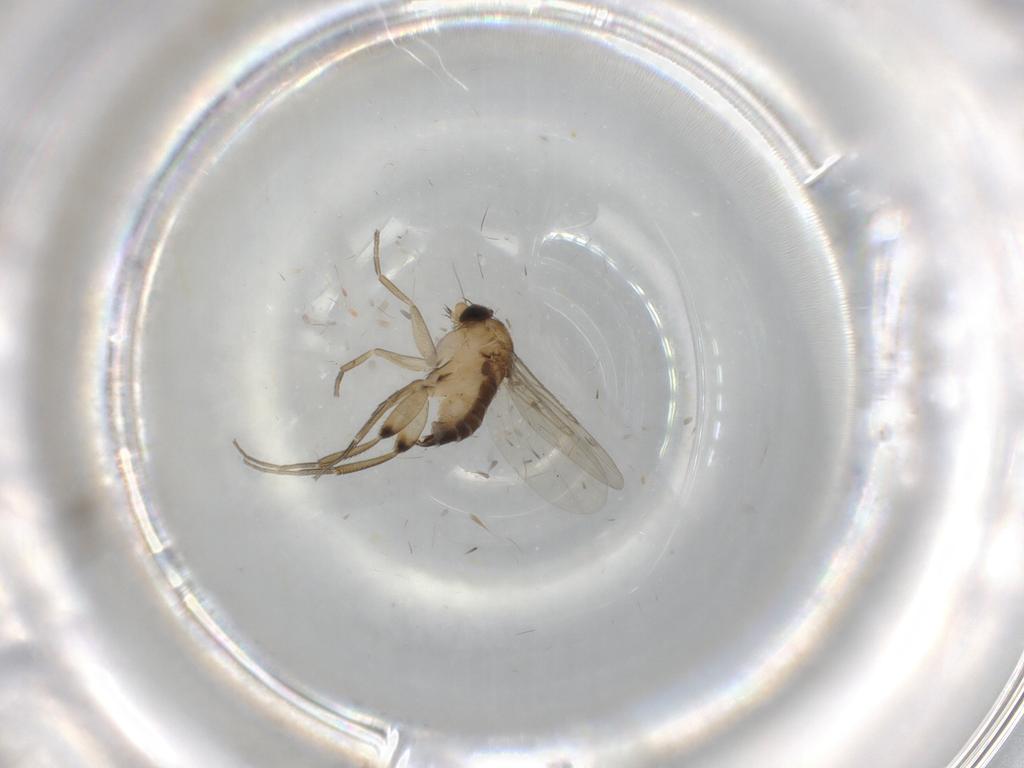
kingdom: Animalia
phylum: Arthropoda
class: Insecta
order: Diptera
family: Phoridae
